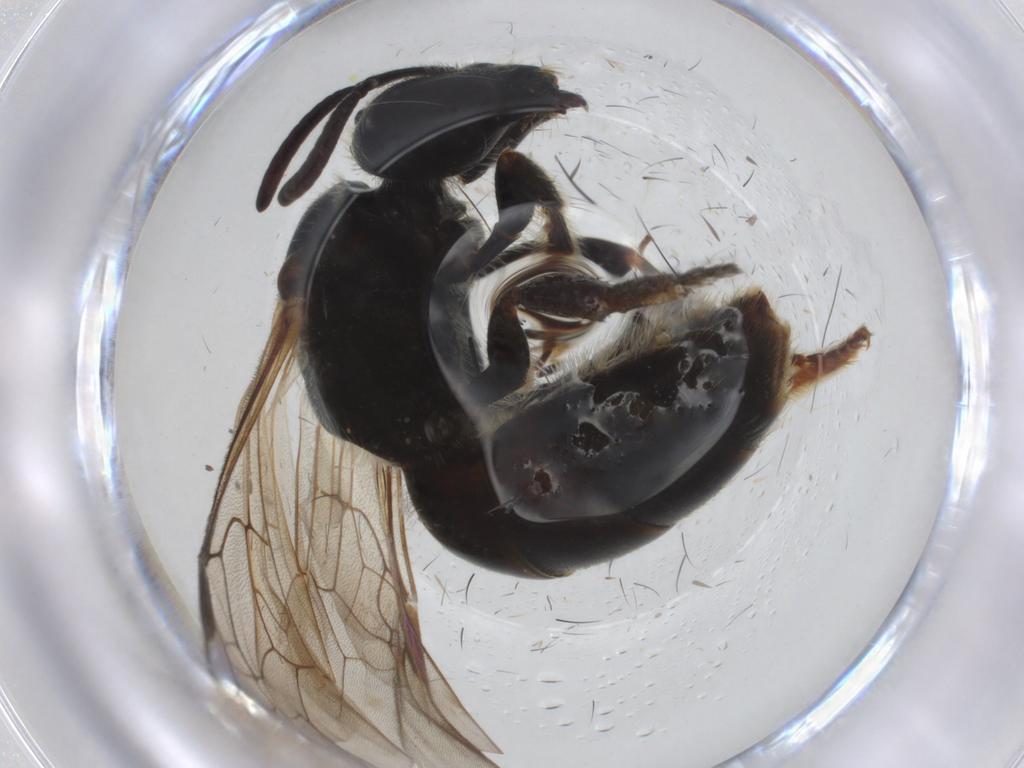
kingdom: Animalia
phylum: Arthropoda
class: Insecta
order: Hymenoptera
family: Halictidae
